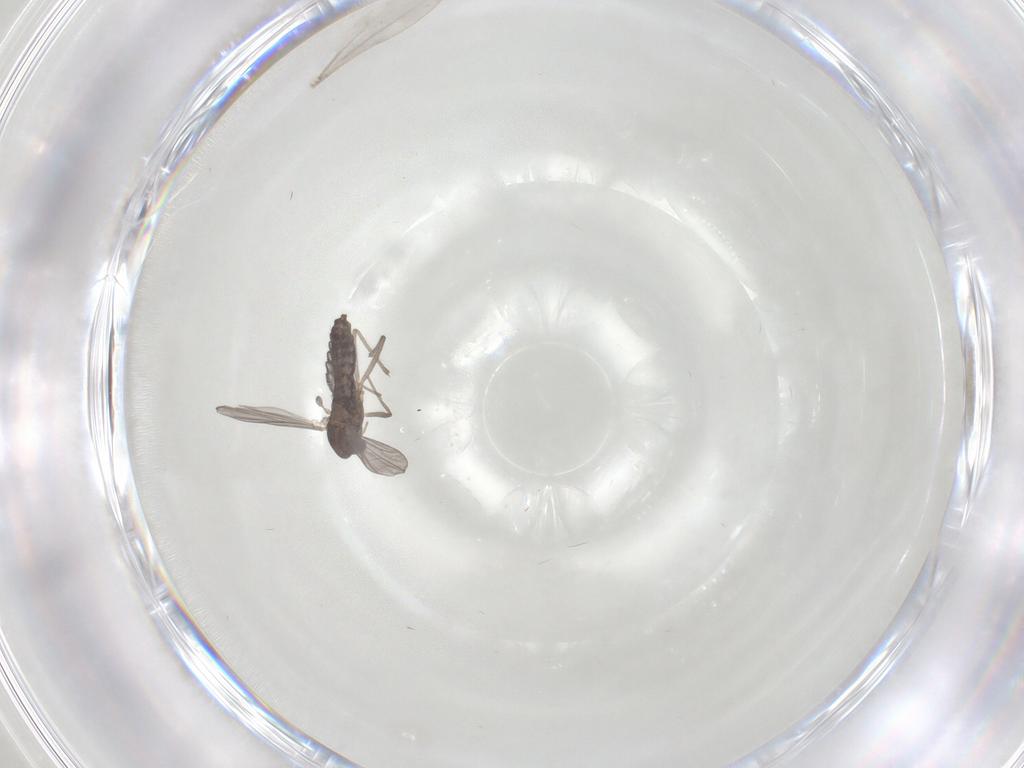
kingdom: Animalia
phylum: Arthropoda
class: Insecta
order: Diptera
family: Chironomidae
